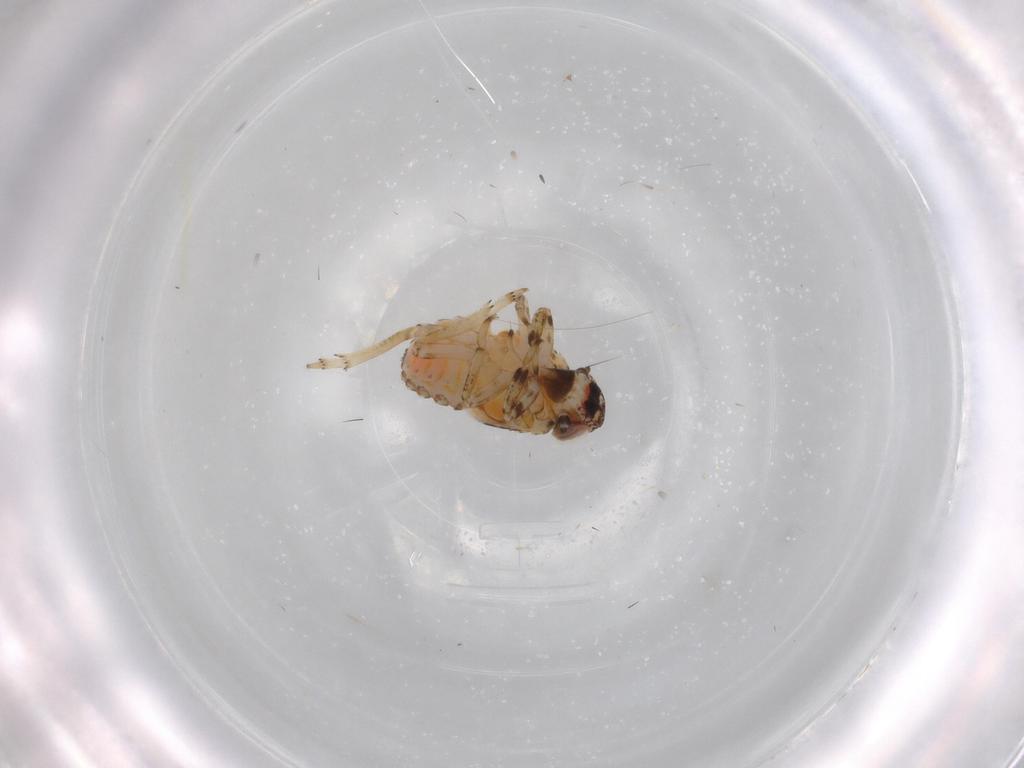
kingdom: Animalia
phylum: Arthropoda
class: Insecta
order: Hemiptera
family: Issidae
